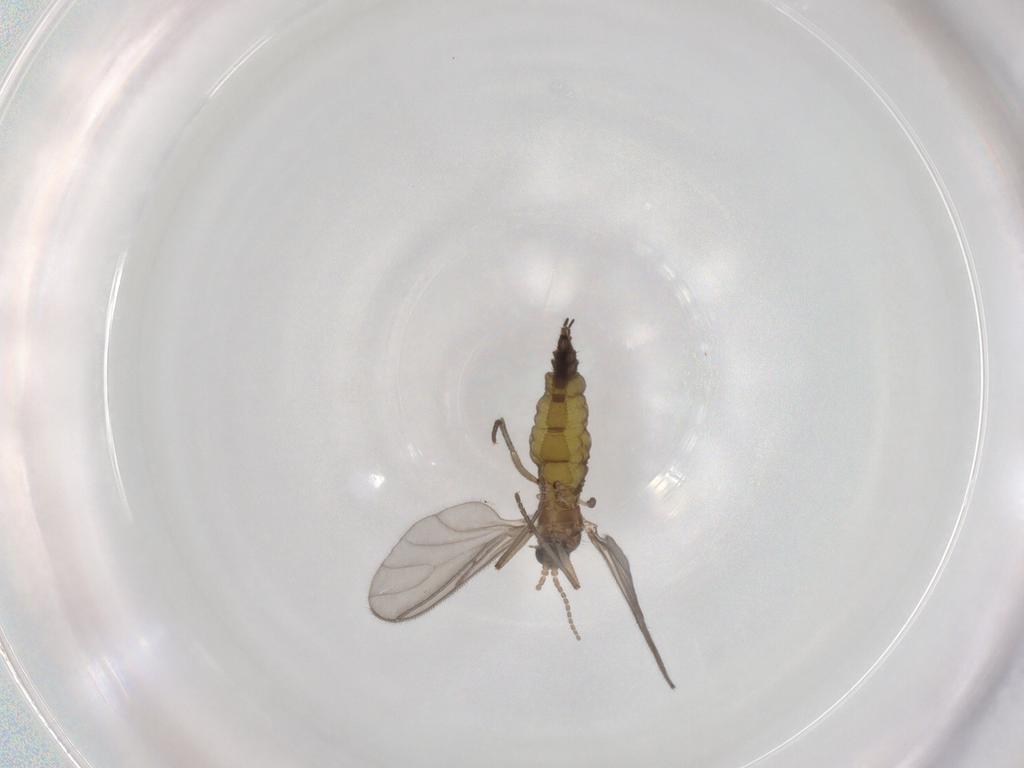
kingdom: Animalia
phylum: Arthropoda
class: Insecta
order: Diptera
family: Sciaridae
